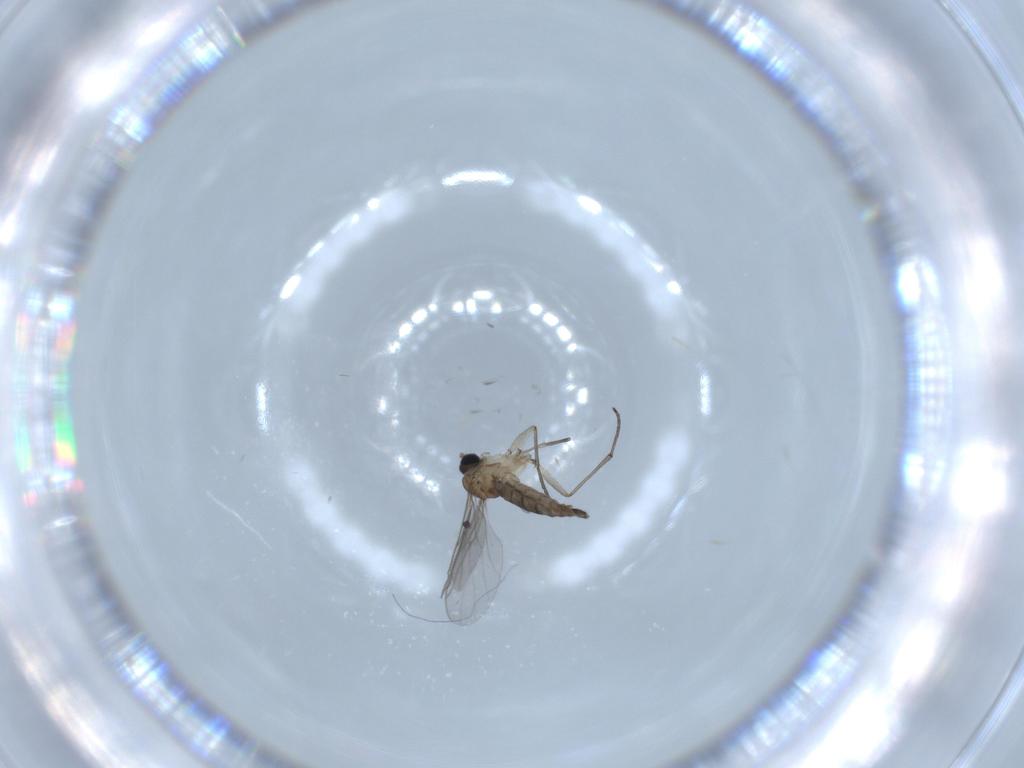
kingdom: Animalia
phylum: Arthropoda
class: Insecta
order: Diptera
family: Sciaridae
